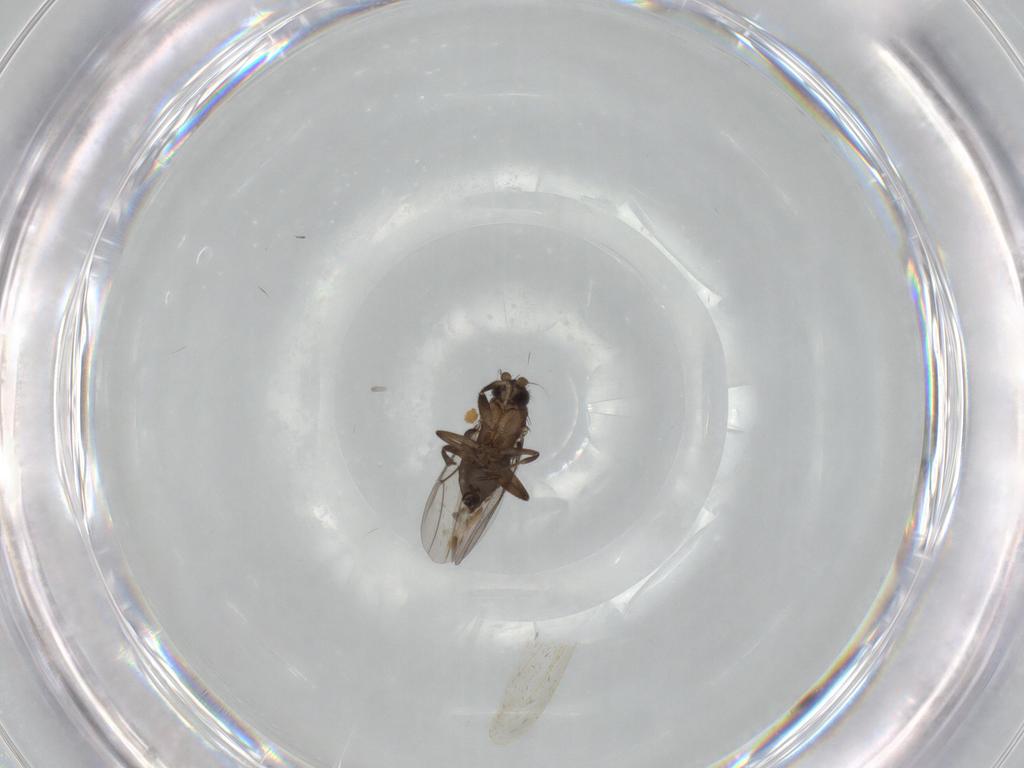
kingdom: Animalia
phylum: Arthropoda
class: Insecta
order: Diptera
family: Phoridae
